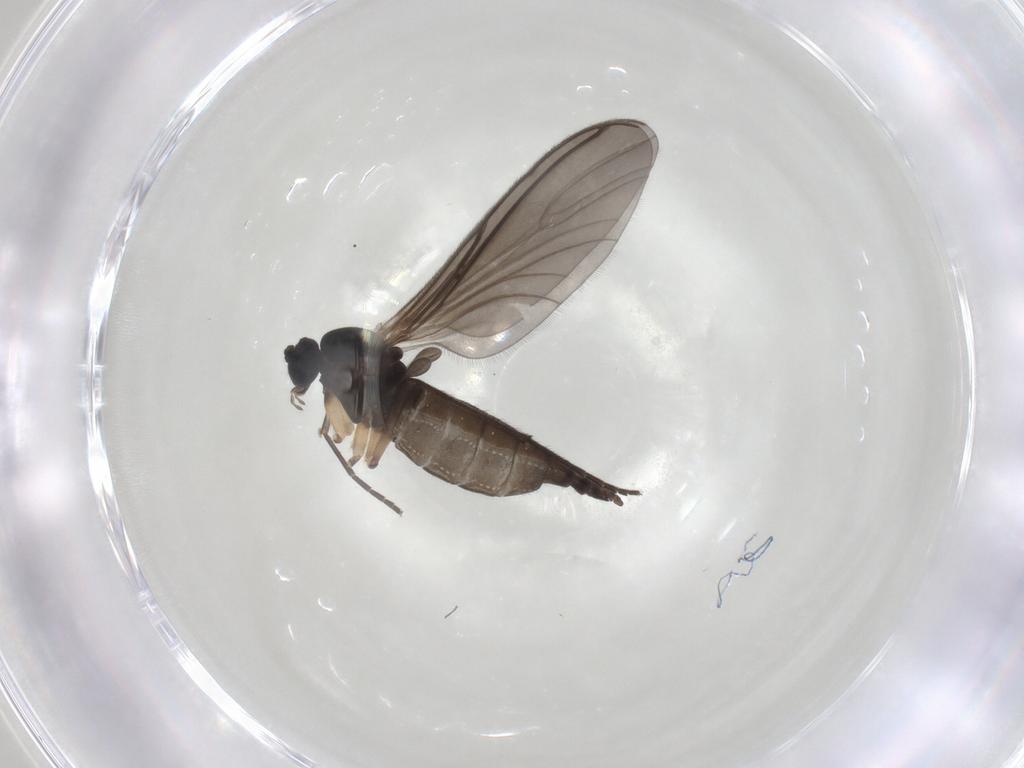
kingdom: Animalia
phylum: Arthropoda
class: Insecta
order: Diptera
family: Sciaridae
